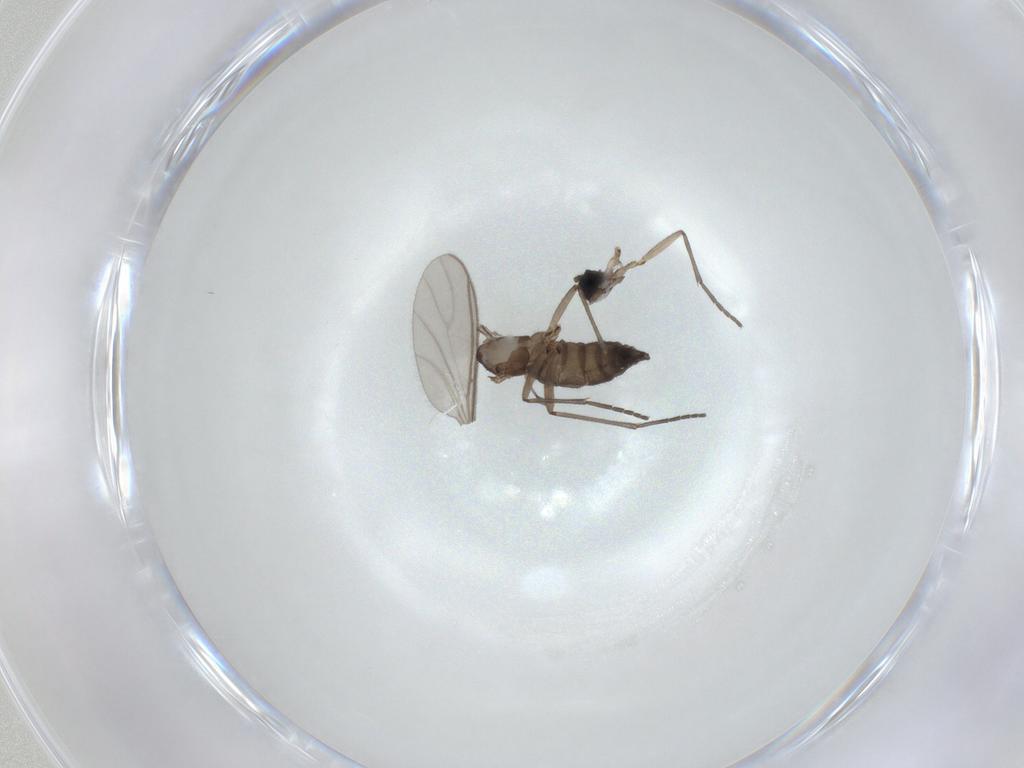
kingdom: Animalia
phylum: Arthropoda
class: Insecta
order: Diptera
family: Sciaridae
